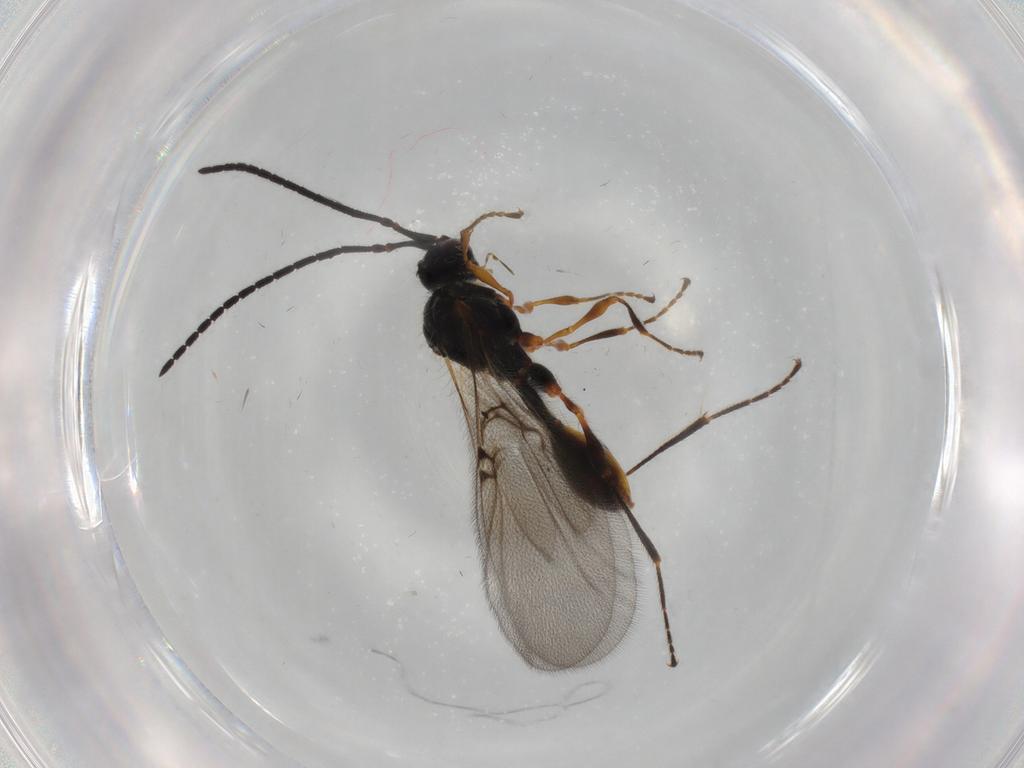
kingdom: Animalia
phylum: Arthropoda
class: Insecta
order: Hymenoptera
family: Diapriidae
